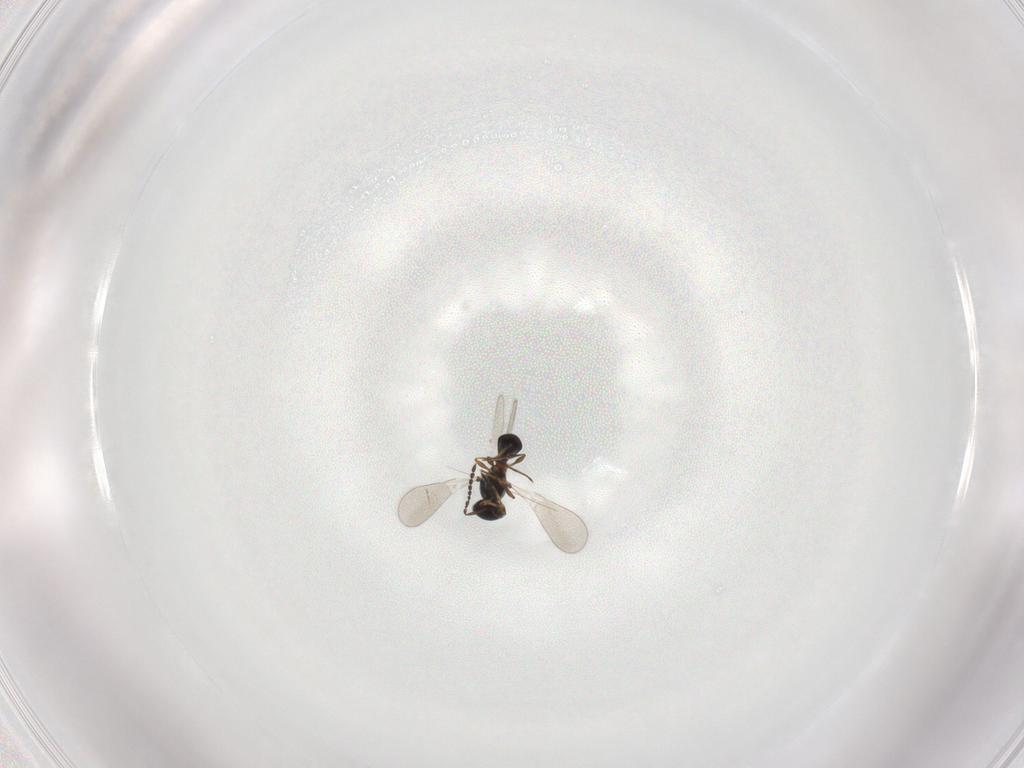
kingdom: Animalia
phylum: Arthropoda
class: Insecta
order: Hymenoptera
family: Platygastridae
